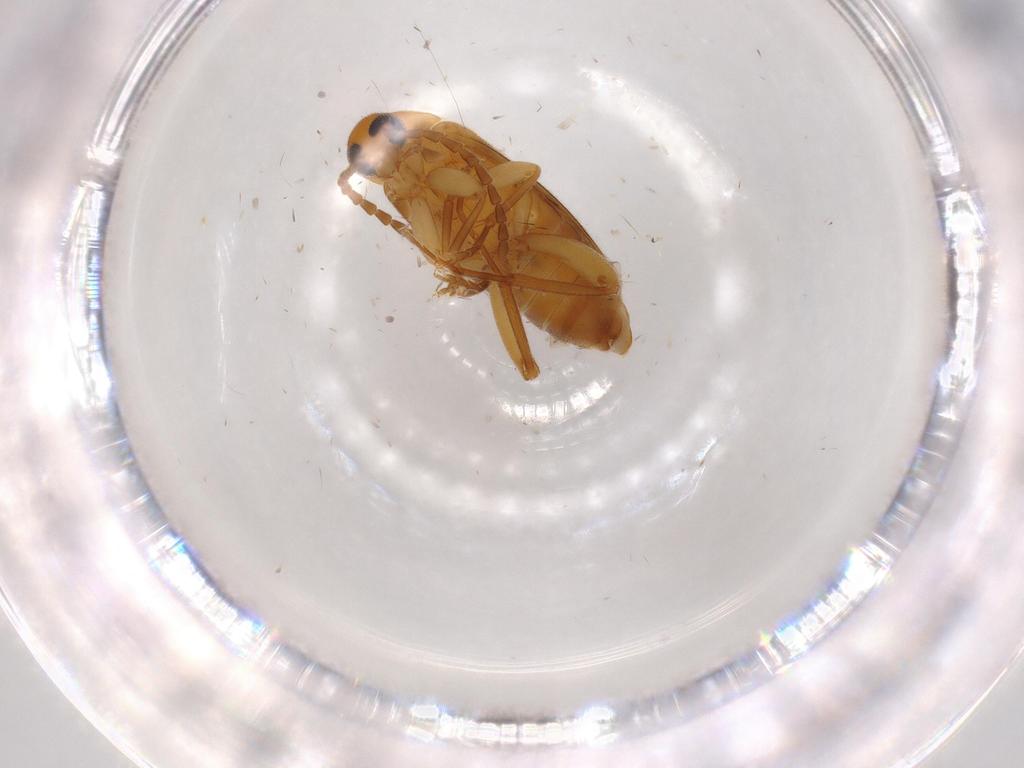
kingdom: Animalia
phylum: Arthropoda
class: Insecta
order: Coleoptera
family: Scraptiidae
